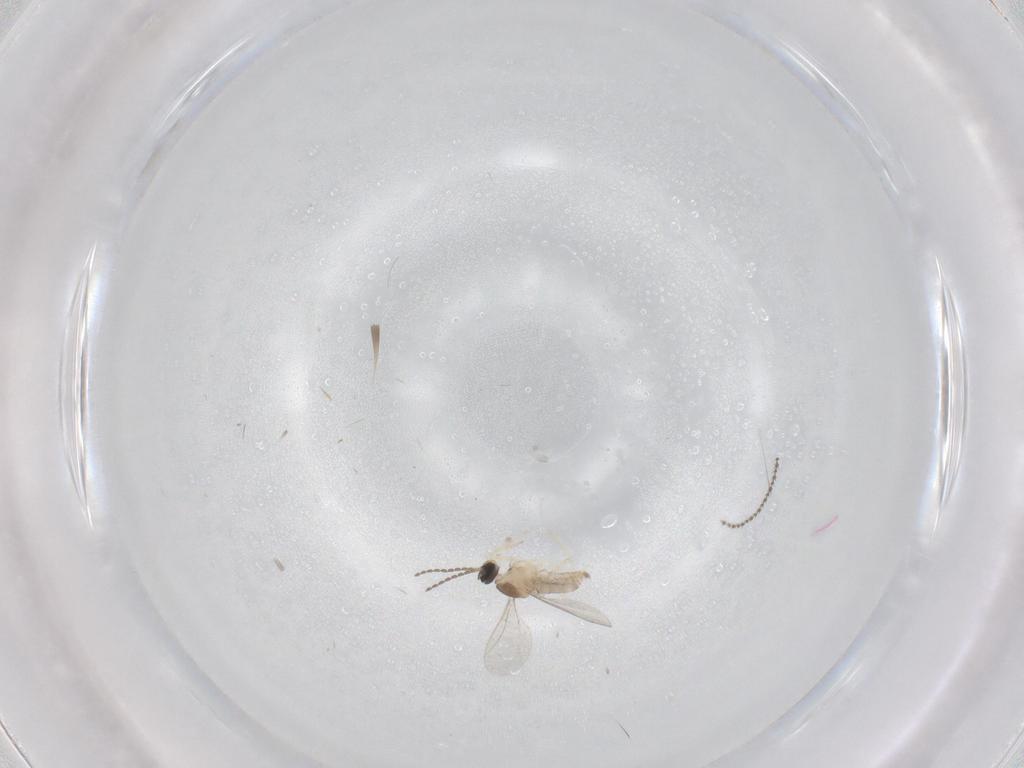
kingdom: Animalia
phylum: Arthropoda
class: Insecta
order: Diptera
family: Cecidomyiidae
